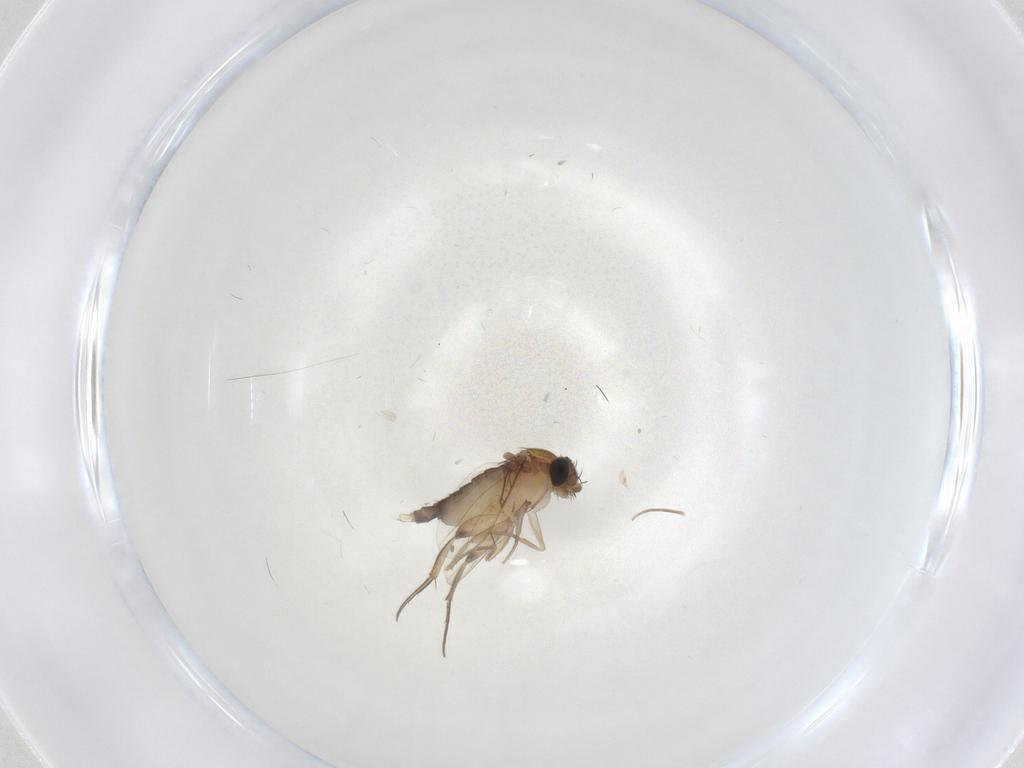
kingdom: Animalia
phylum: Arthropoda
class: Insecta
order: Diptera
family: Phoridae
